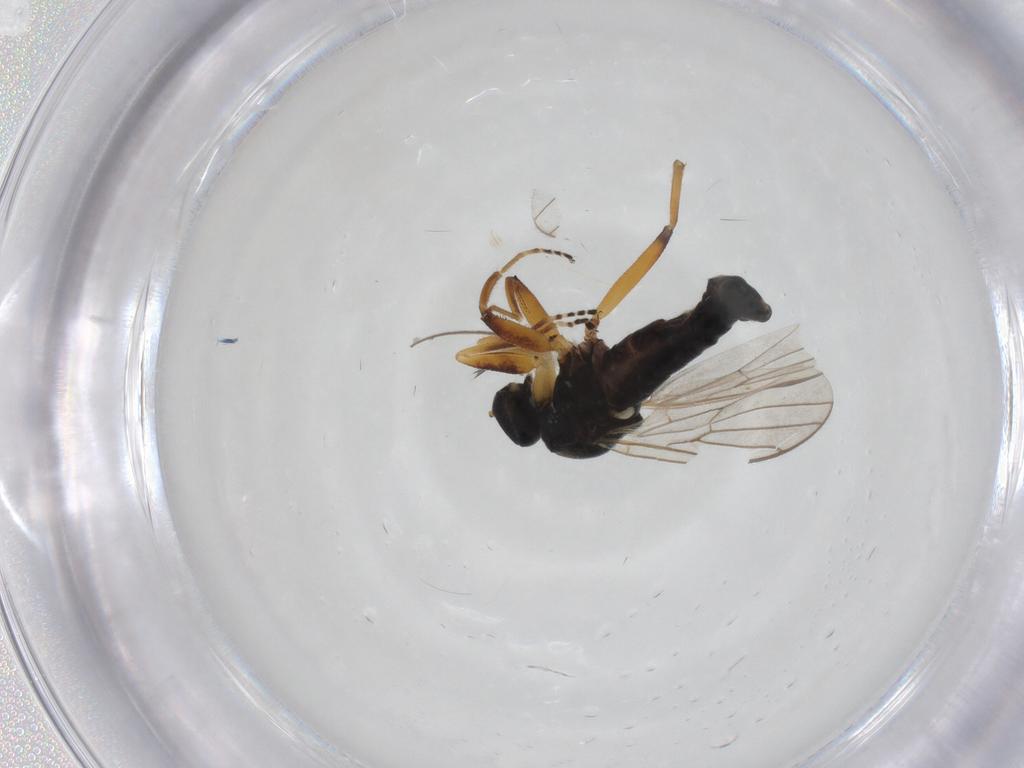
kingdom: Animalia
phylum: Arthropoda
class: Insecta
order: Diptera
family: Hybotidae
